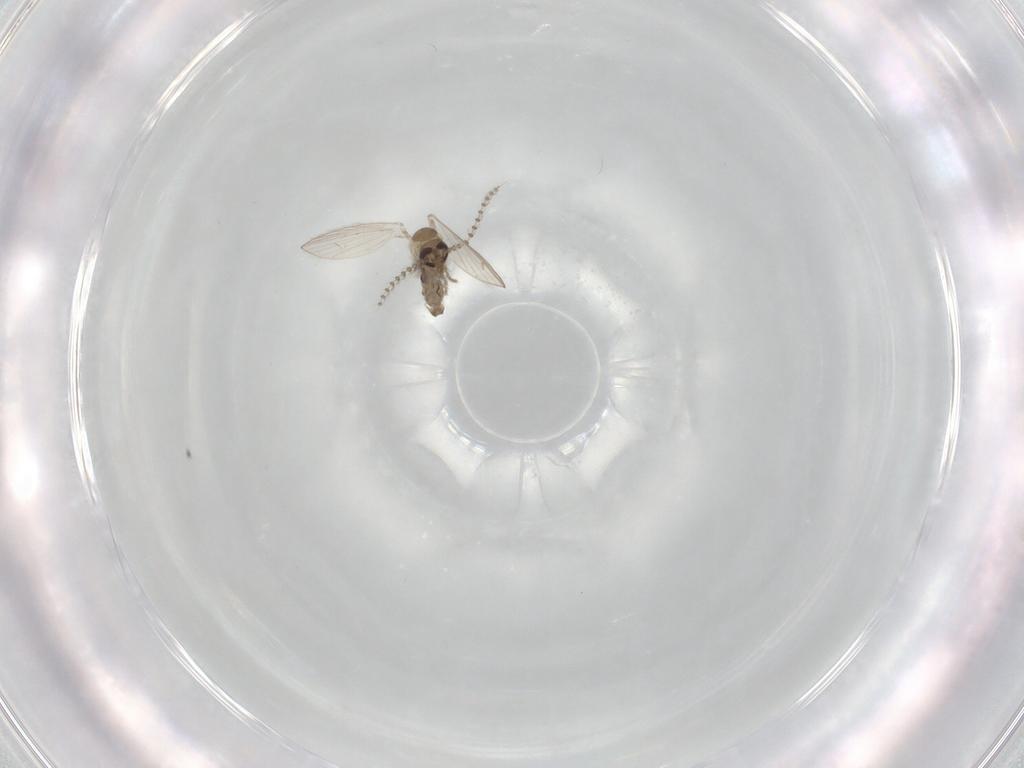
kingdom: Animalia
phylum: Arthropoda
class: Insecta
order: Diptera
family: Psychodidae
